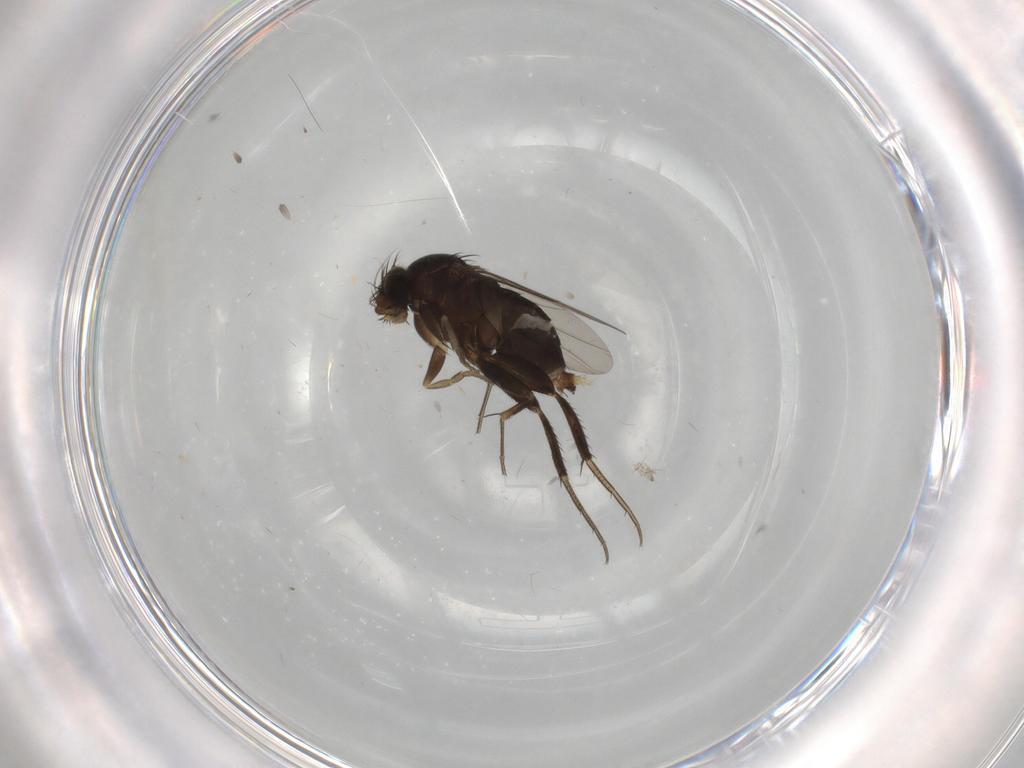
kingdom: Animalia
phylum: Arthropoda
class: Insecta
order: Diptera
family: Phoridae
